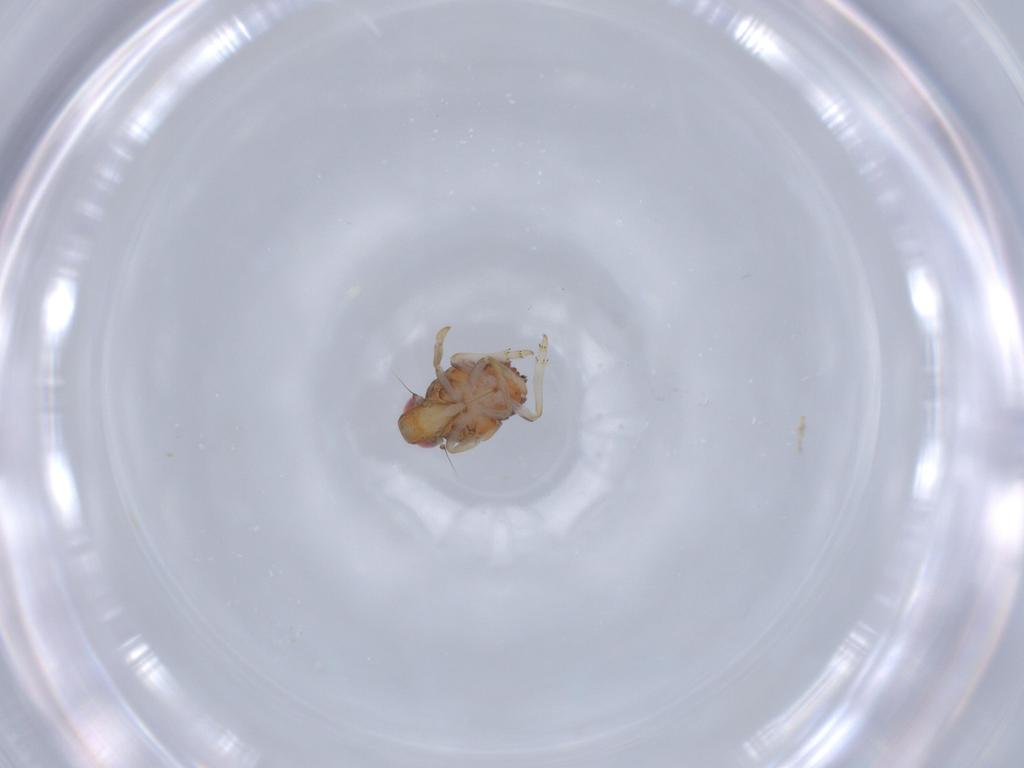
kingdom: Animalia
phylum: Arthropoda
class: Insecta
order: Hemiptera
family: Issidae
